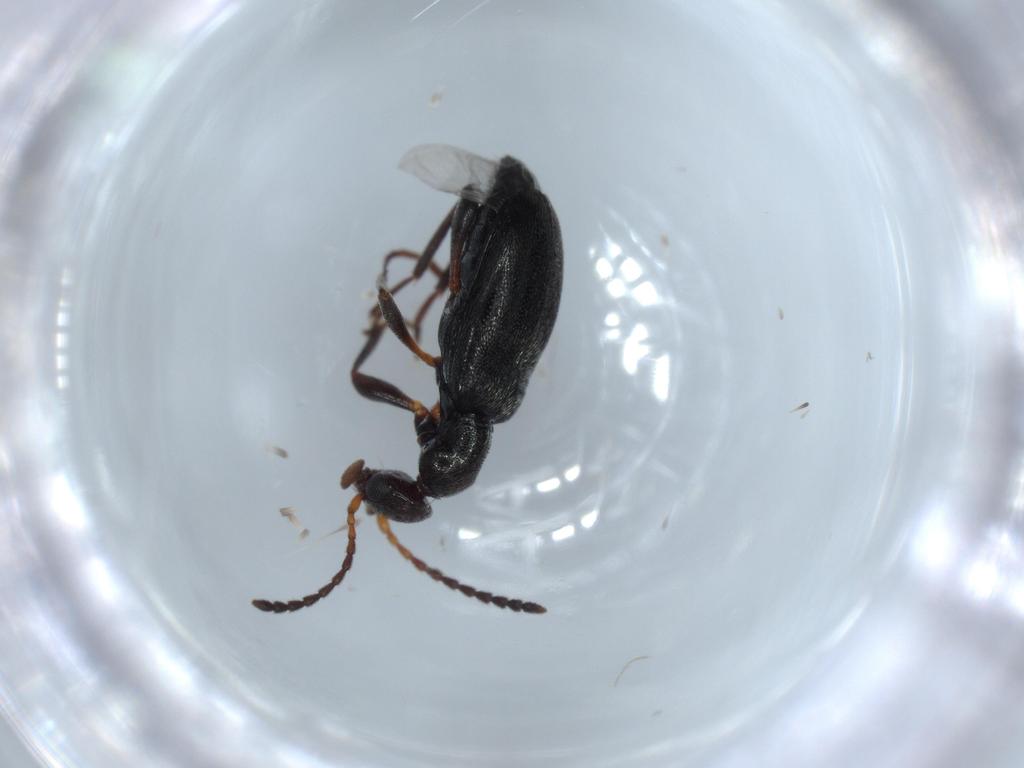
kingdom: Animalia
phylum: Arthropoda
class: Insecta
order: Coleoptera
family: Anthicidae
